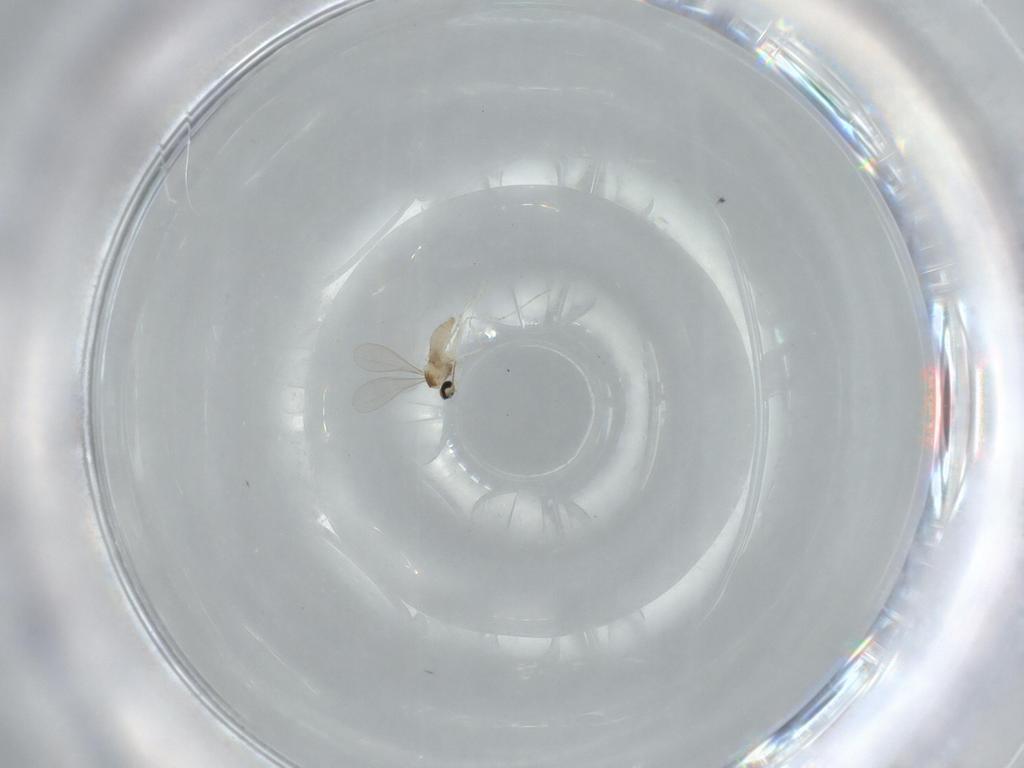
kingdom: Animalia
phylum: Arthropoda
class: Insecta
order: Diptera
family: Cecidomyiidae
